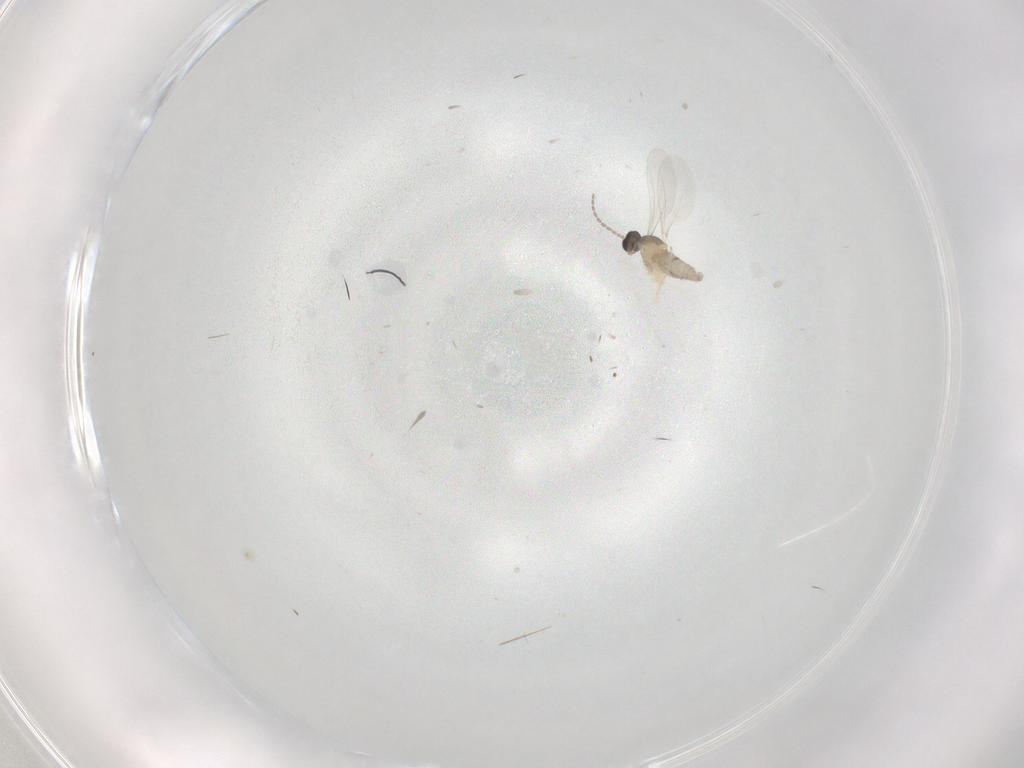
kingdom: Animalia
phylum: Arthropoda
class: Insecta
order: Diptera
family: Cecidomyiidae
